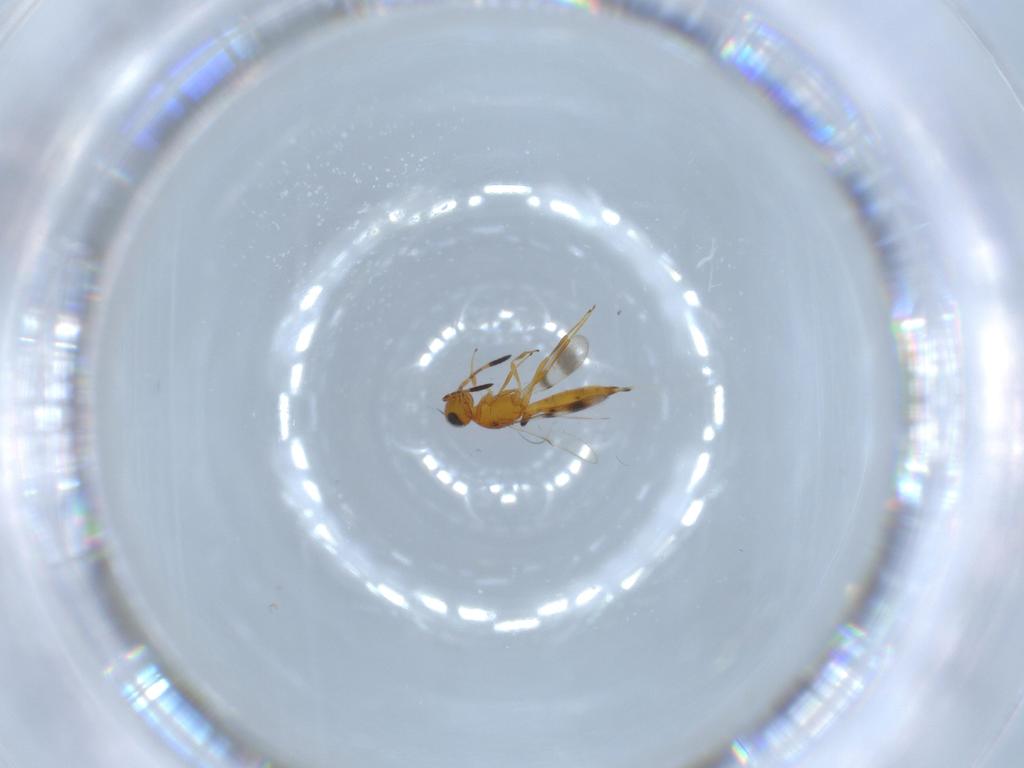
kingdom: Animalia
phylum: Arthropoda
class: Insecta
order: Hymenoptera
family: Scelionidae
